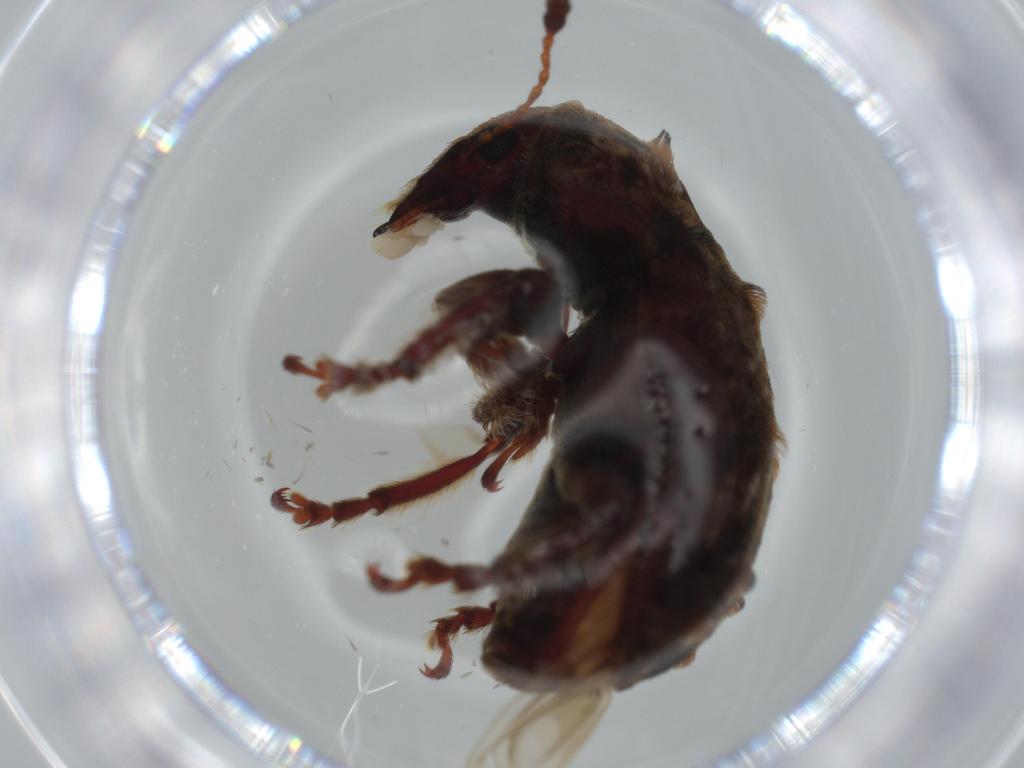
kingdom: Animalia
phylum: Arthropoda
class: Insecta
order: Coleoptera
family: Anthribidae
